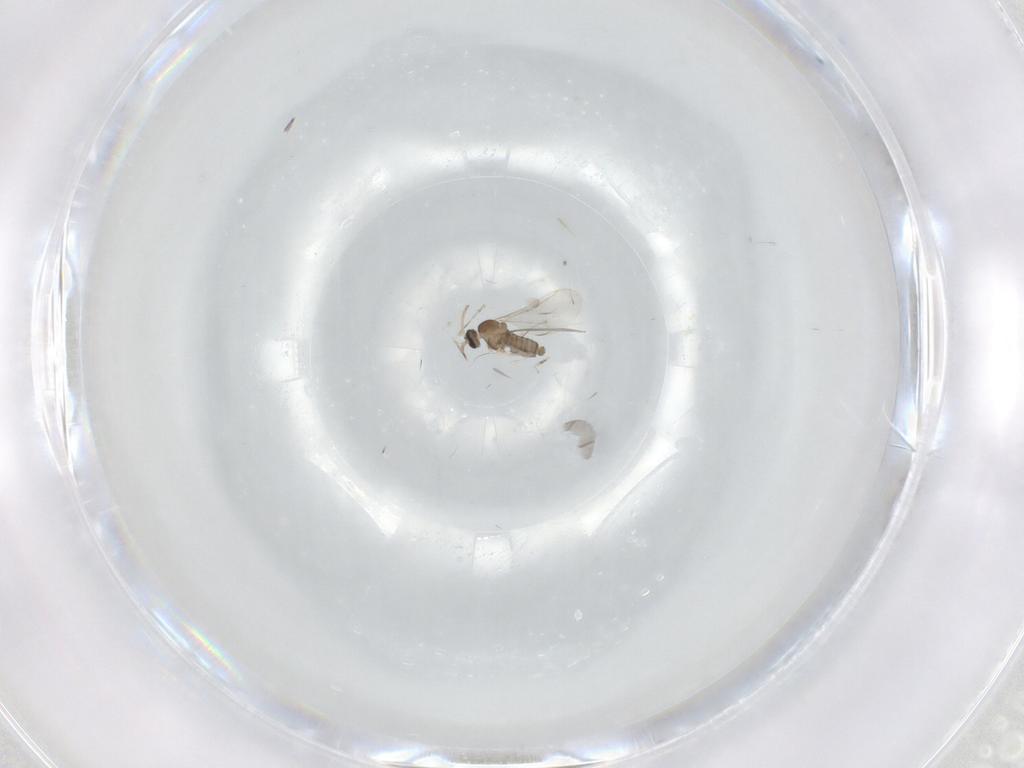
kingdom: Animalia
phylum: Arthropoda
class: Insecta
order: Diptera
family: Cecidomyiidae
